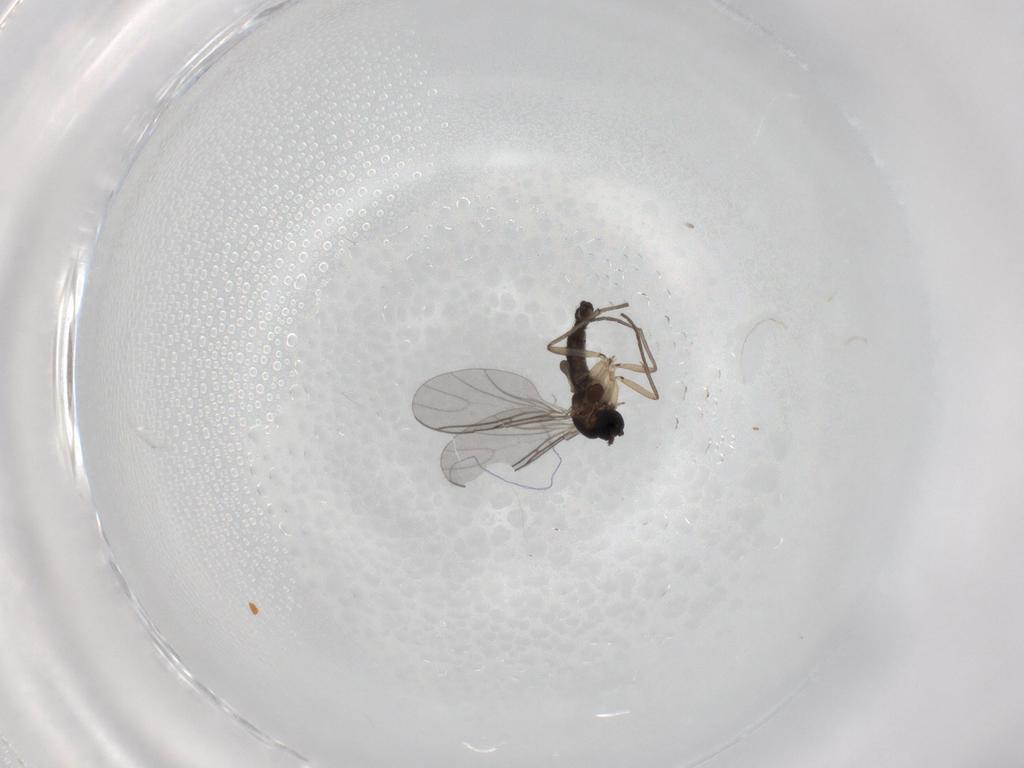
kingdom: Animalia
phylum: Arthropoda
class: Insecta
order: Diptera
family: Sciaridae
